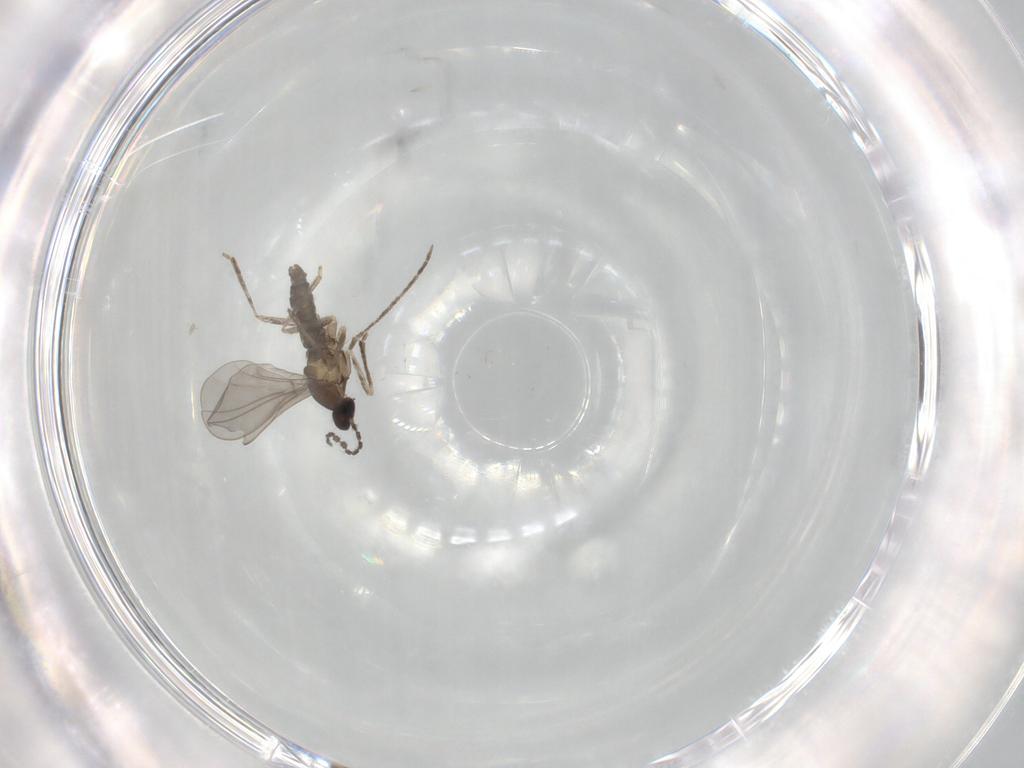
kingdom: Animalia
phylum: Arthropoda
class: Insecta
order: Diptera
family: Cecidomyiidae
